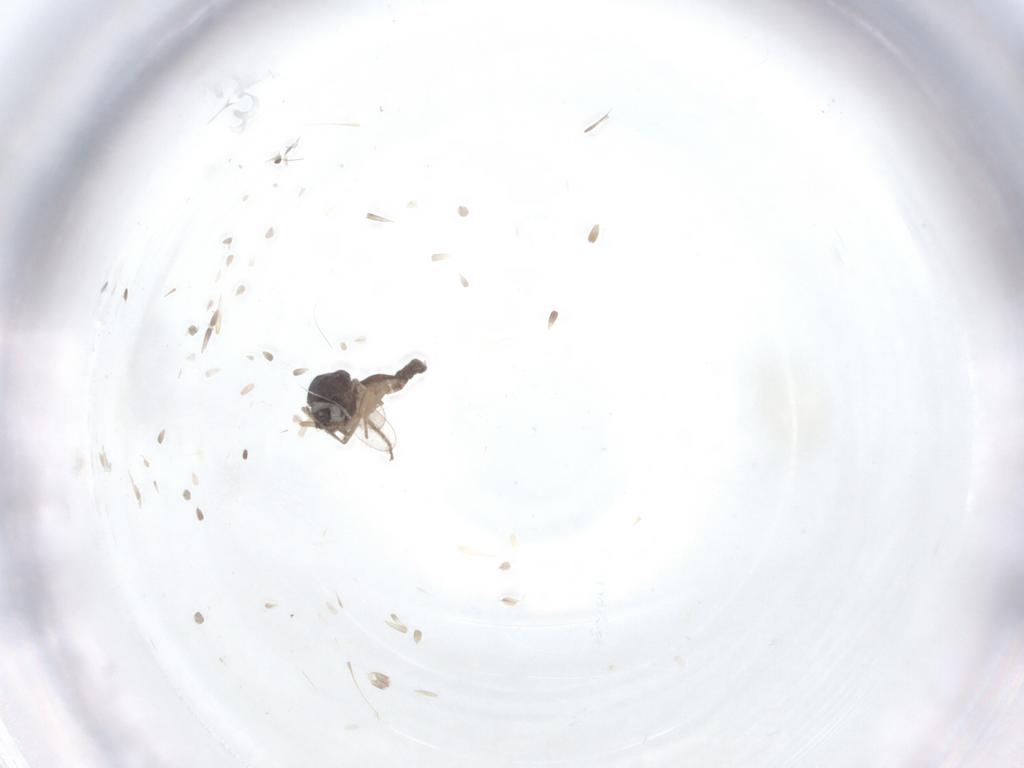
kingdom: Animalia
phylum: Arthropoda
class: Insecta
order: Diptera
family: Ceratopogonidae
